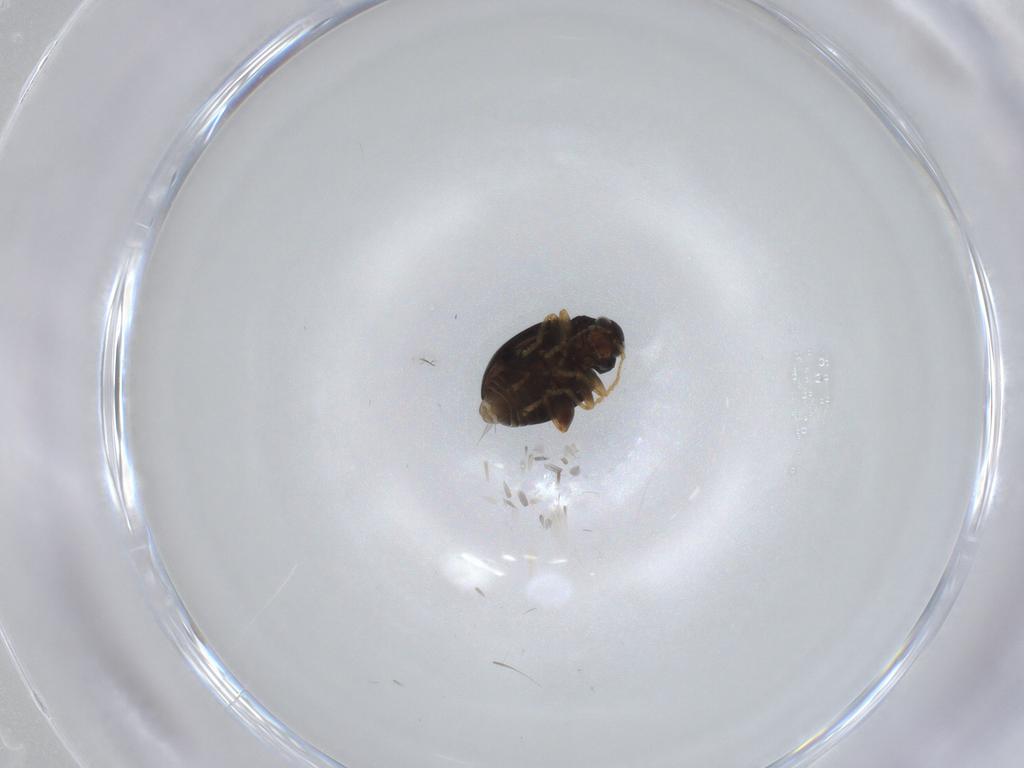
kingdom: Animalia
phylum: Arthropoda
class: Insecta
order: Coleoptera
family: Chrysomelidae
